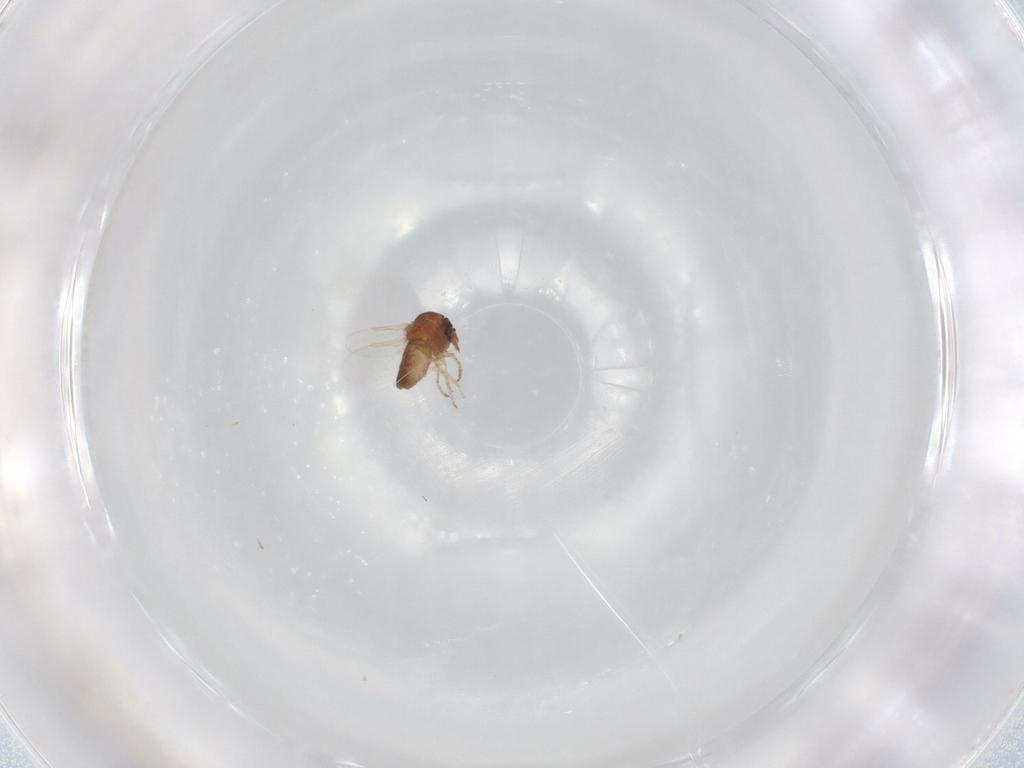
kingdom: Animalia
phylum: Arthropoda
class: Insecta
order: Diptera
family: Ceratopogonidae
